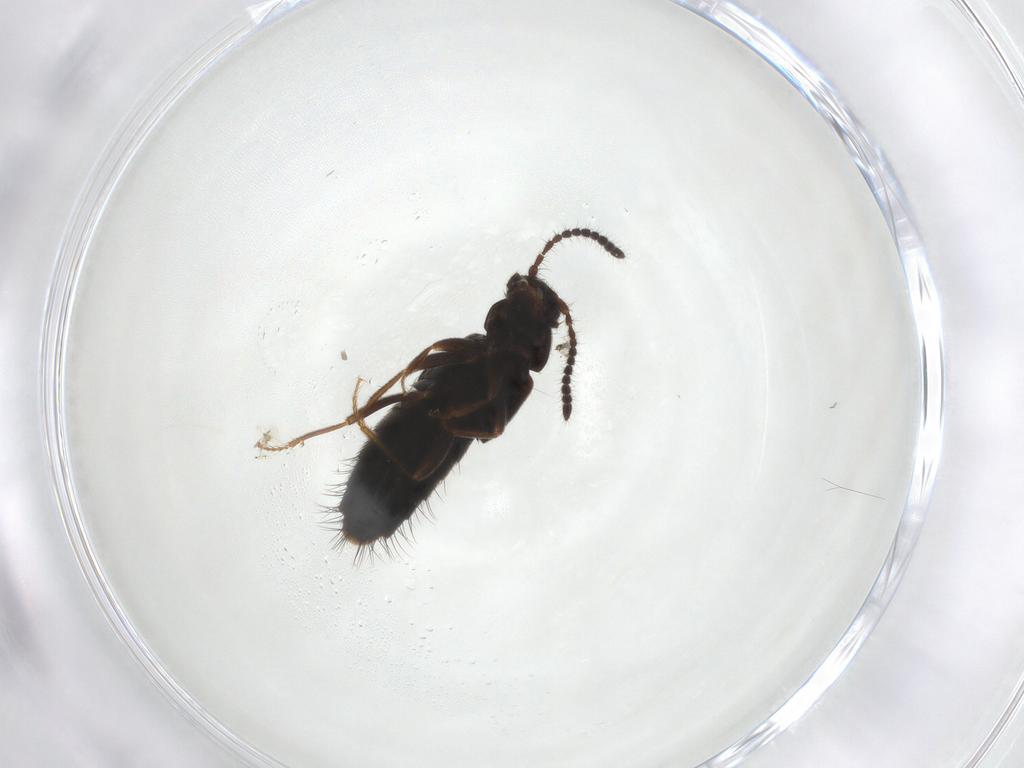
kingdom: Animalia
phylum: Arthropoda
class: Insecta
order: Coleoptera
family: Staphylinidae
